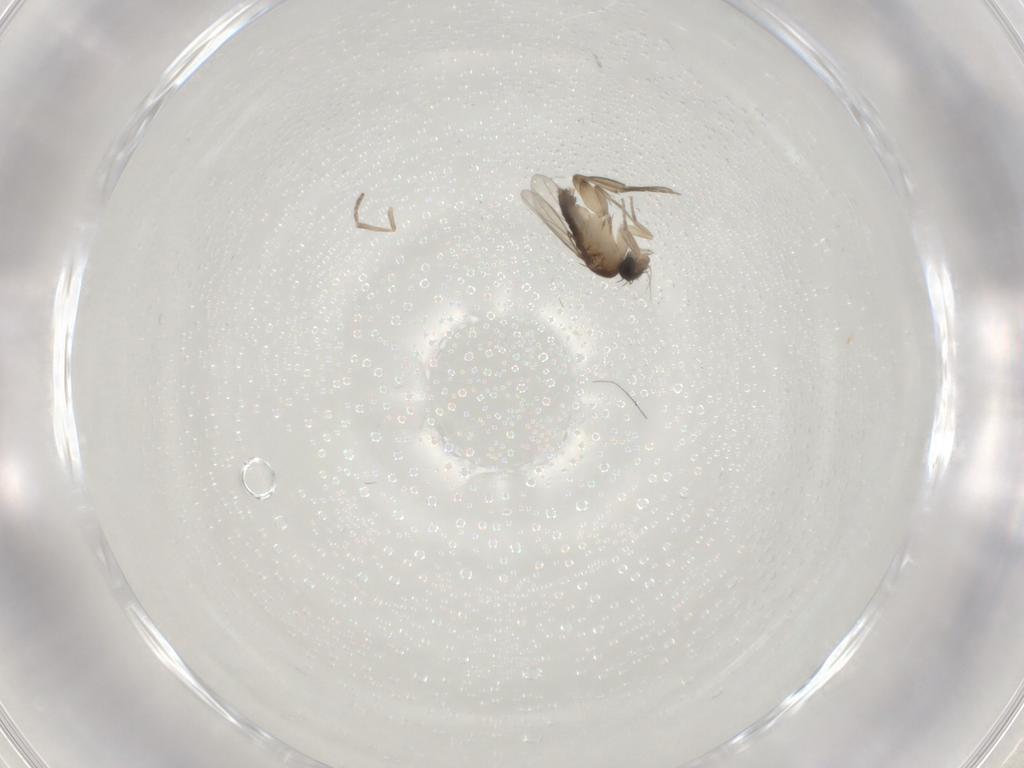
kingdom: Animalia
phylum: Arthropoda
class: Insecta
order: Diptera
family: Phoridae
